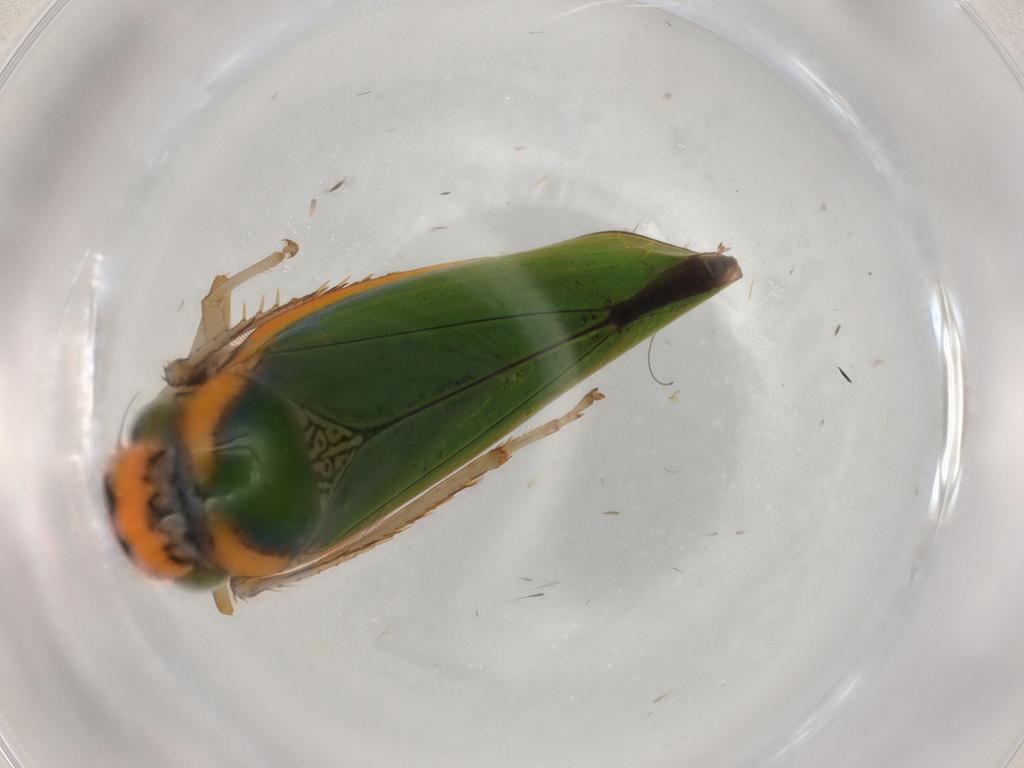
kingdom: Animalia
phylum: Arthropoda
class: Insecta
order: Hemiptera
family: Cicadellidae
